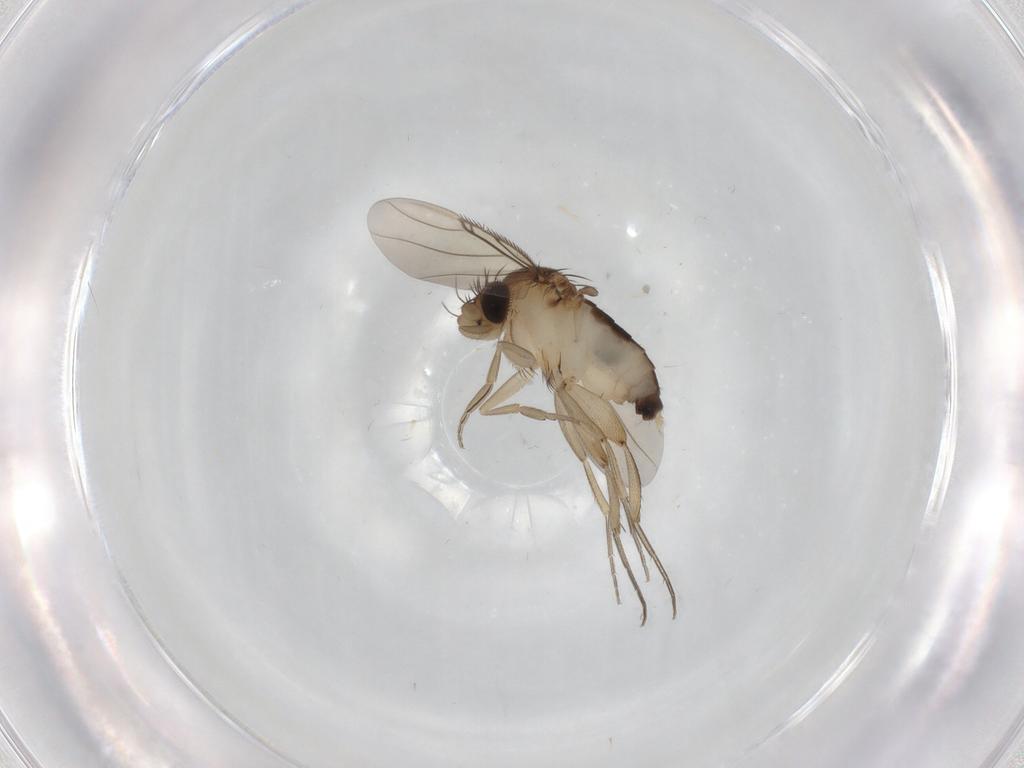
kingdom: Animalia
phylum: Arthropoda
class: Insecta
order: Diptera
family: Phoridae
